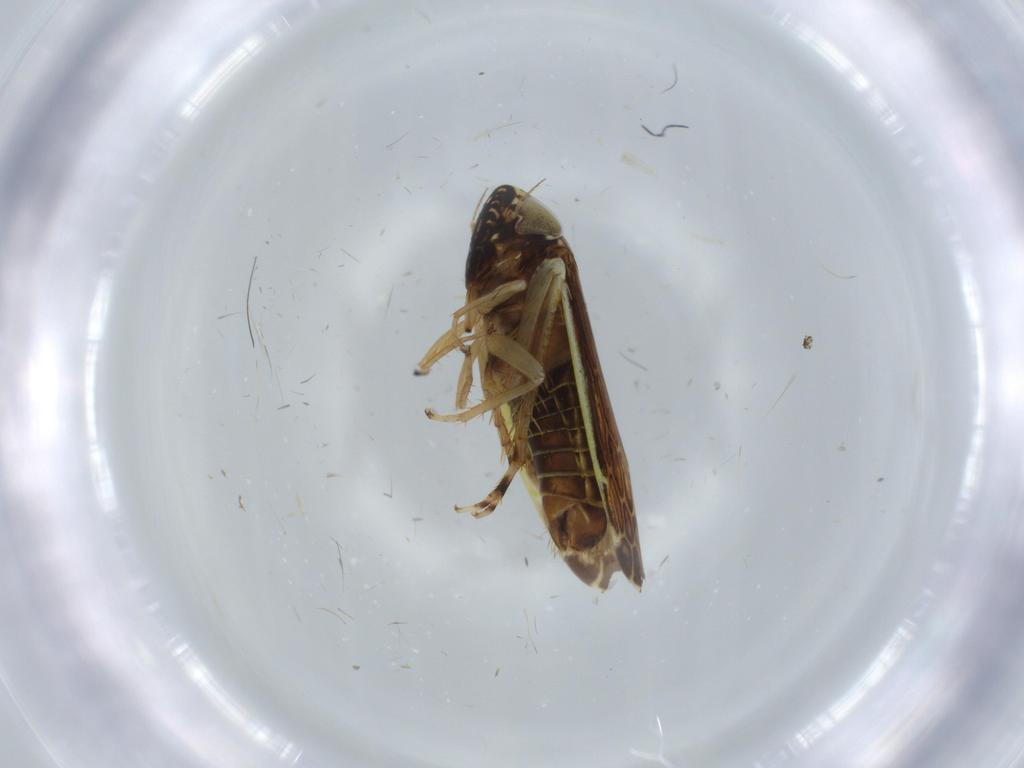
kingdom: Animalia
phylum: Arthropoda
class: Insecta
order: Hemiptera
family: Cicadellidae
